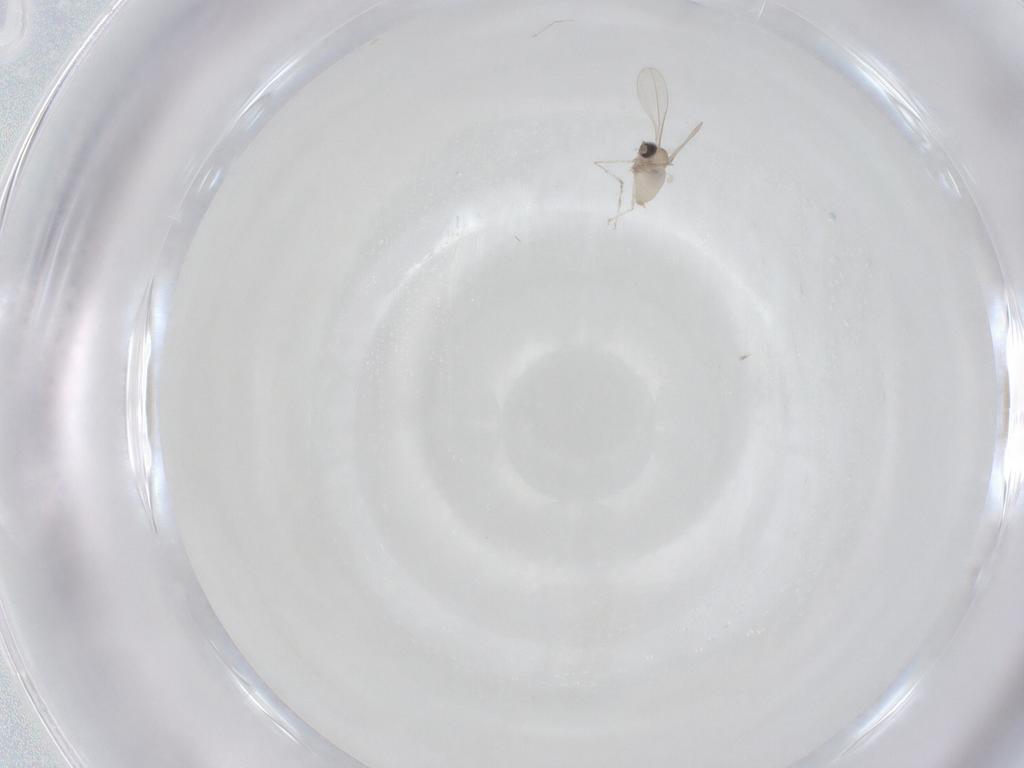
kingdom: Animalia
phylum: Arthropoda
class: Insecta
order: Diptera
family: Cecidomyiidae
